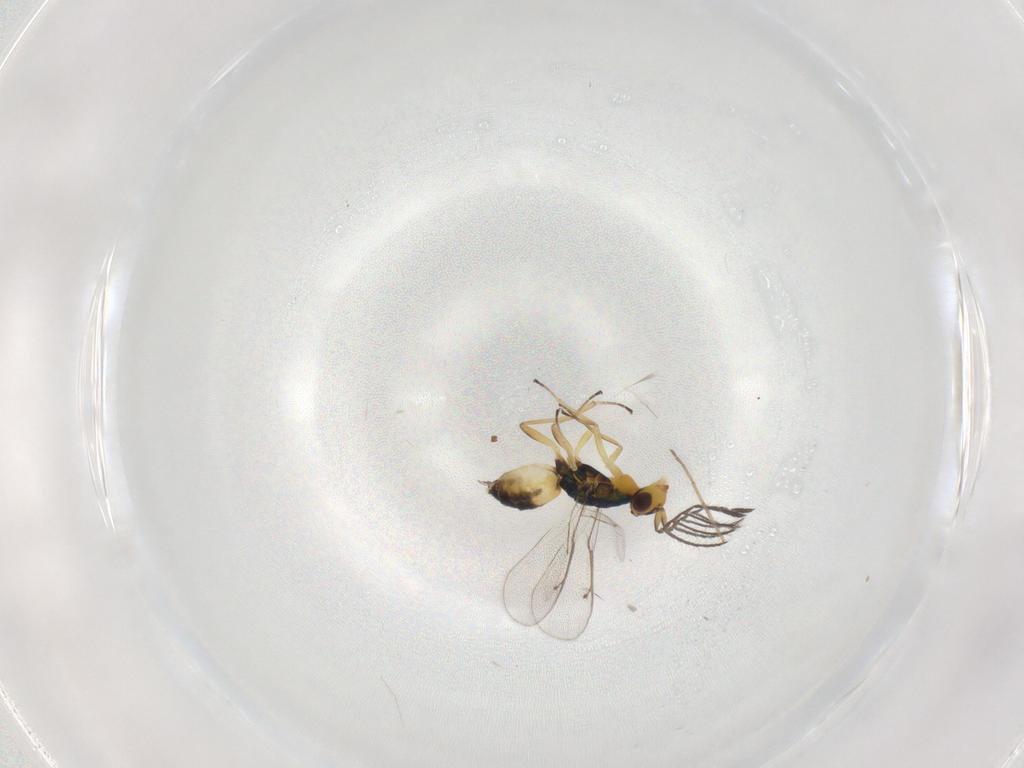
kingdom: Animalia
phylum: Arthropoda
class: Insecta
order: Hymenoptera
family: Eulophidae
